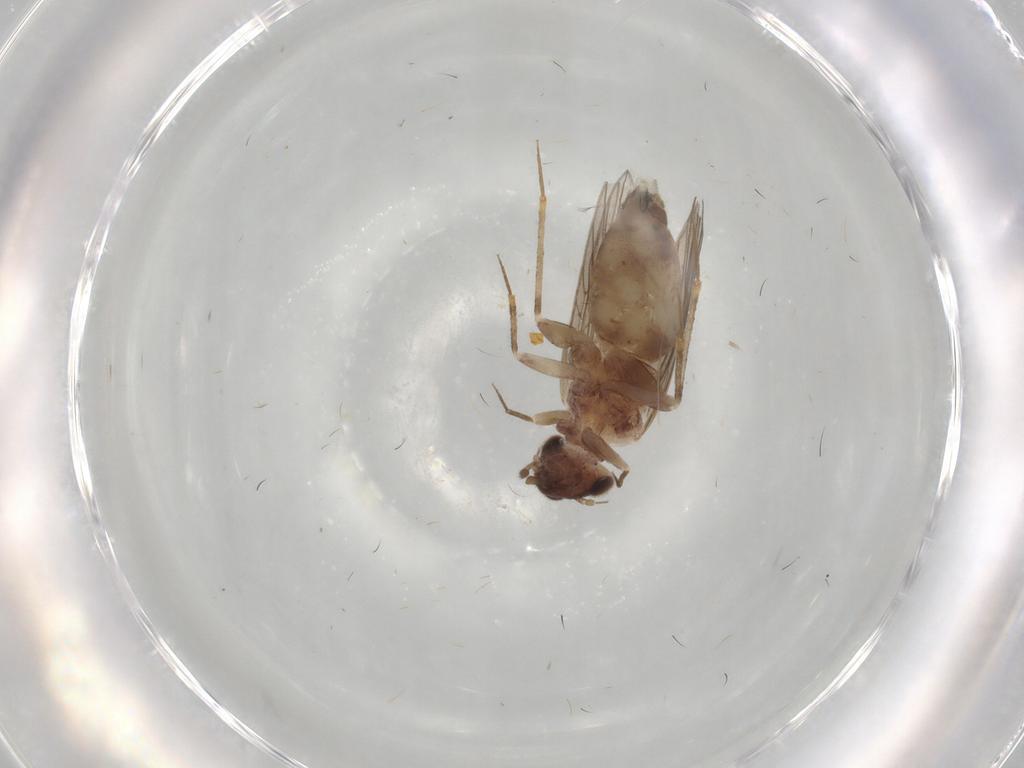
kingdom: Animalia
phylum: Arthropoda
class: Insecta
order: Psocodea
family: Lepidopsocidae
